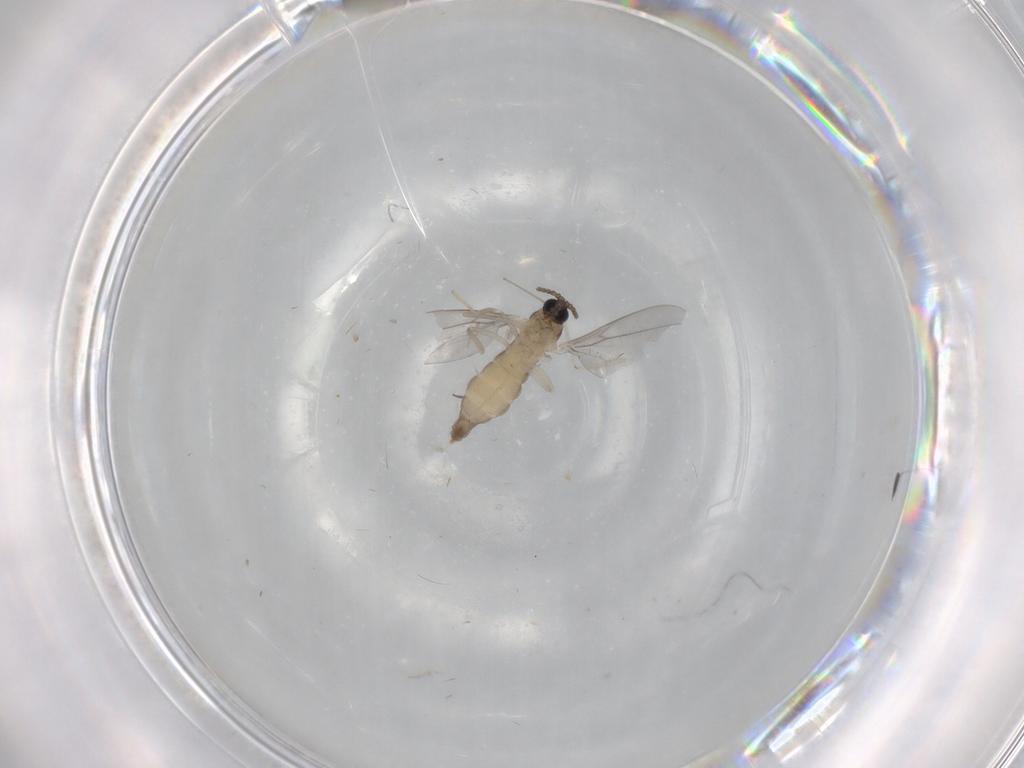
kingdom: Animalia
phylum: Arthropoda
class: Insecta
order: Diptera
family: Cecidomyiidae
